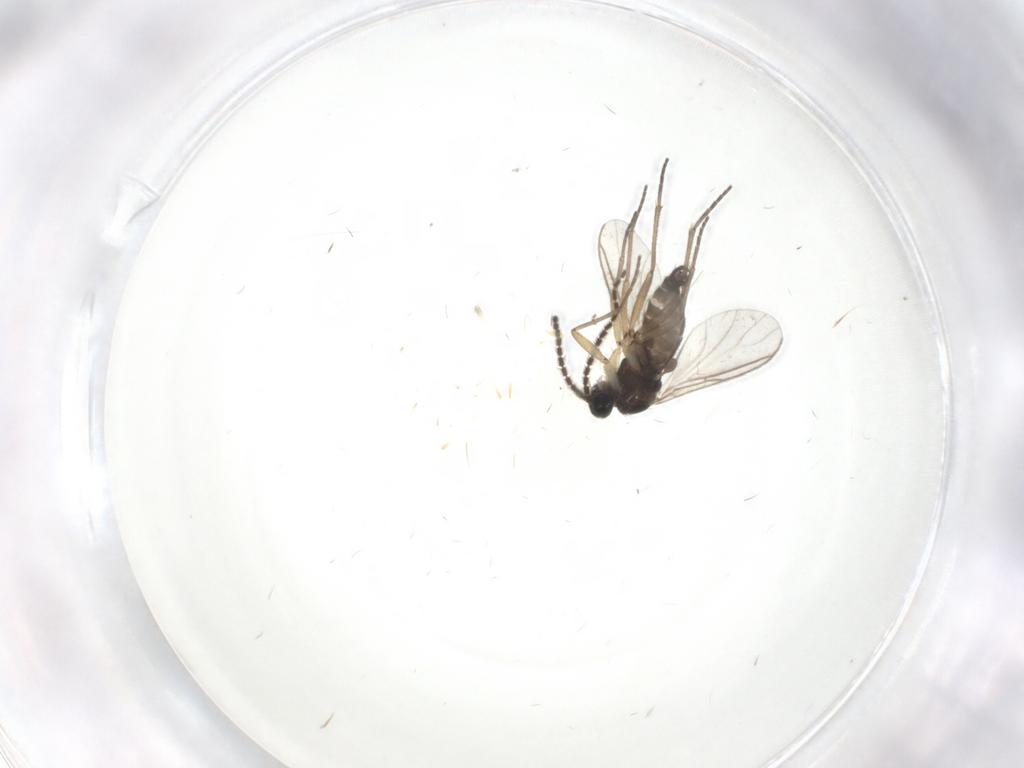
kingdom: Animalia
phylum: Arthropoda
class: Insecta
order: Diptera
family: Sciaridae
